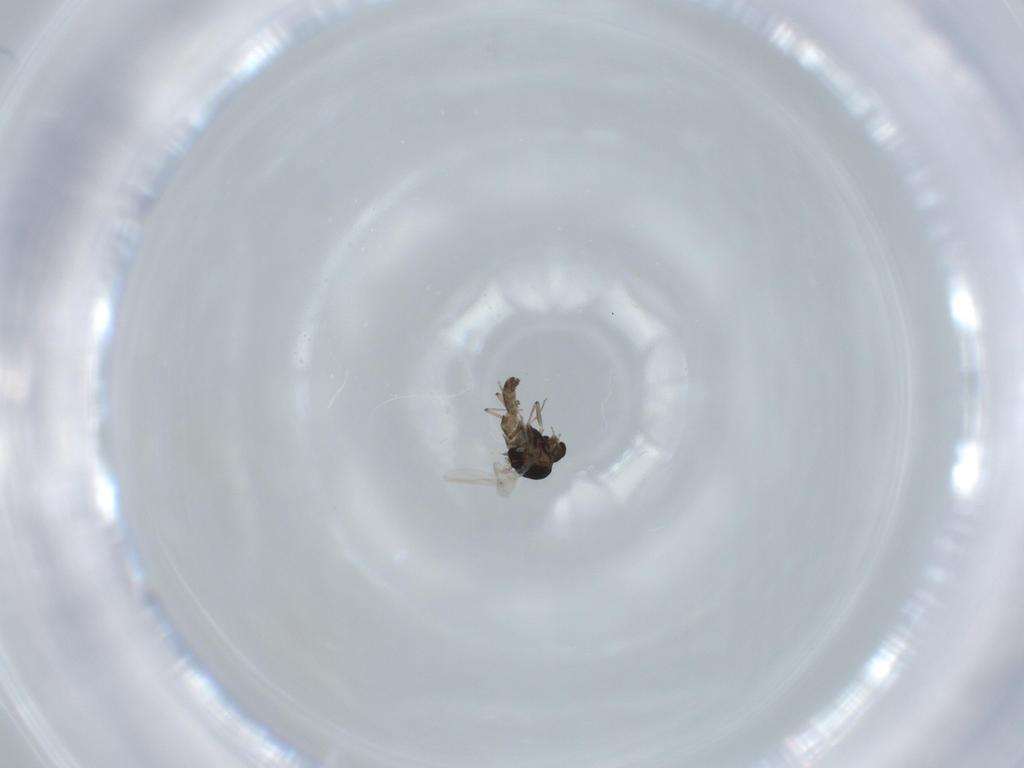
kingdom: Animalia
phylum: Arthropoda
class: Insecta
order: Diptera
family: Chironomidae
